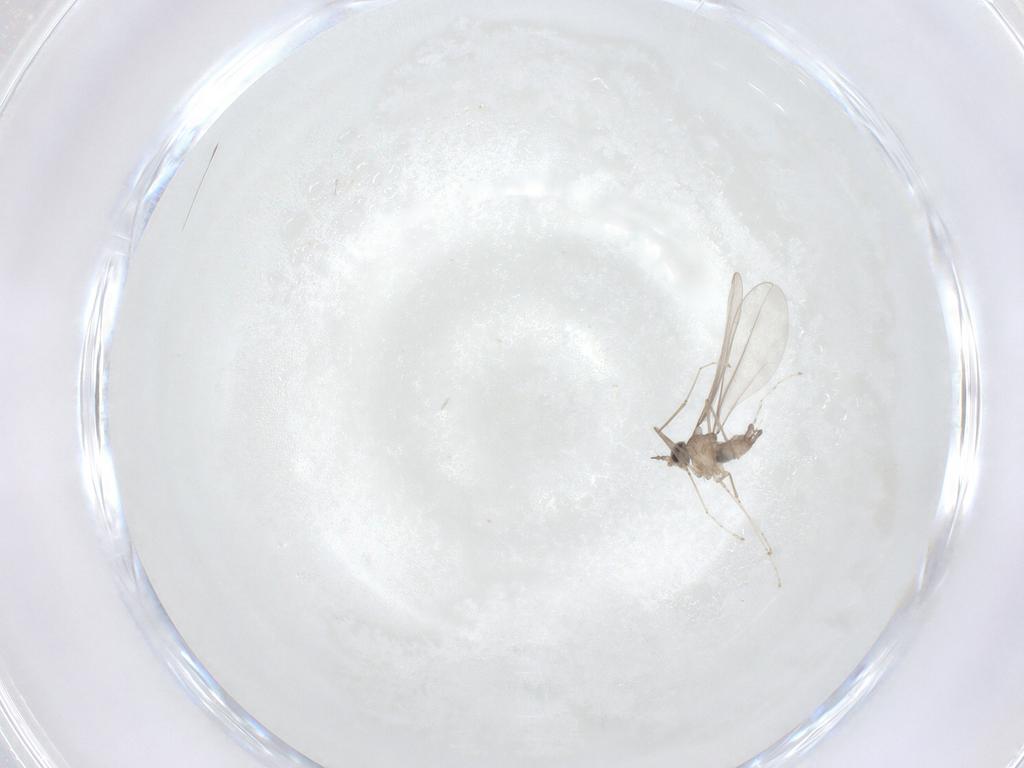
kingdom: Animalia
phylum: Arthropoda
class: Insecta
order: Diptera
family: Cecidomyiidae
